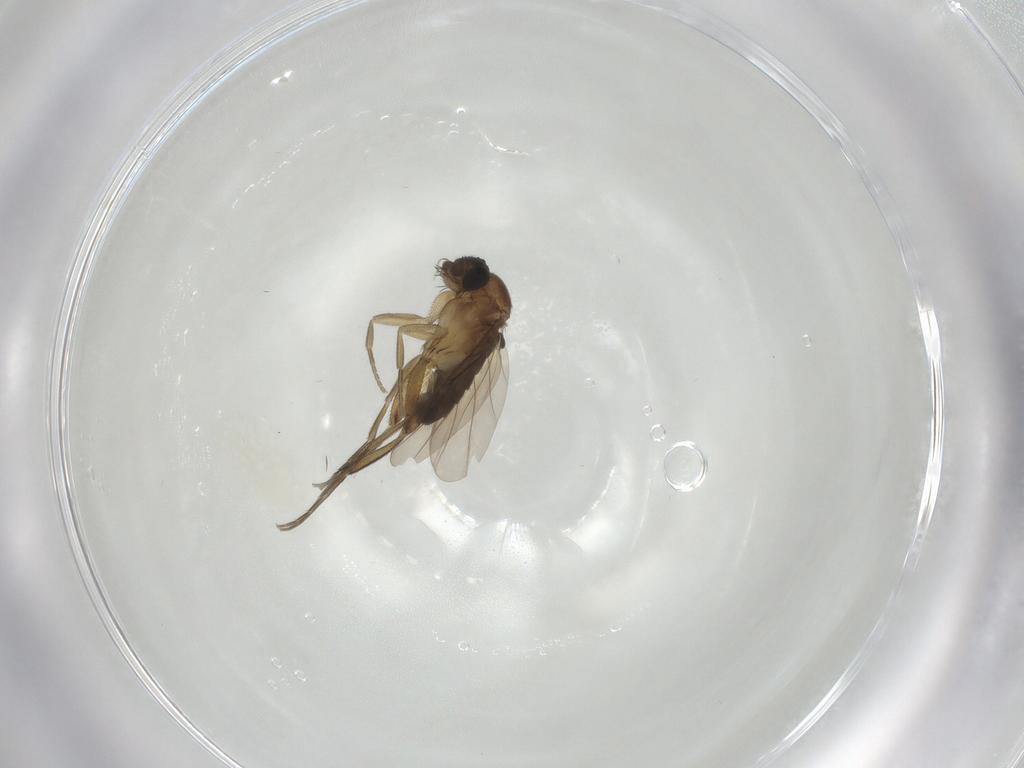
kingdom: Animalia
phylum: Arthropoda
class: Insecta
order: Diptera
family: Phoridae
